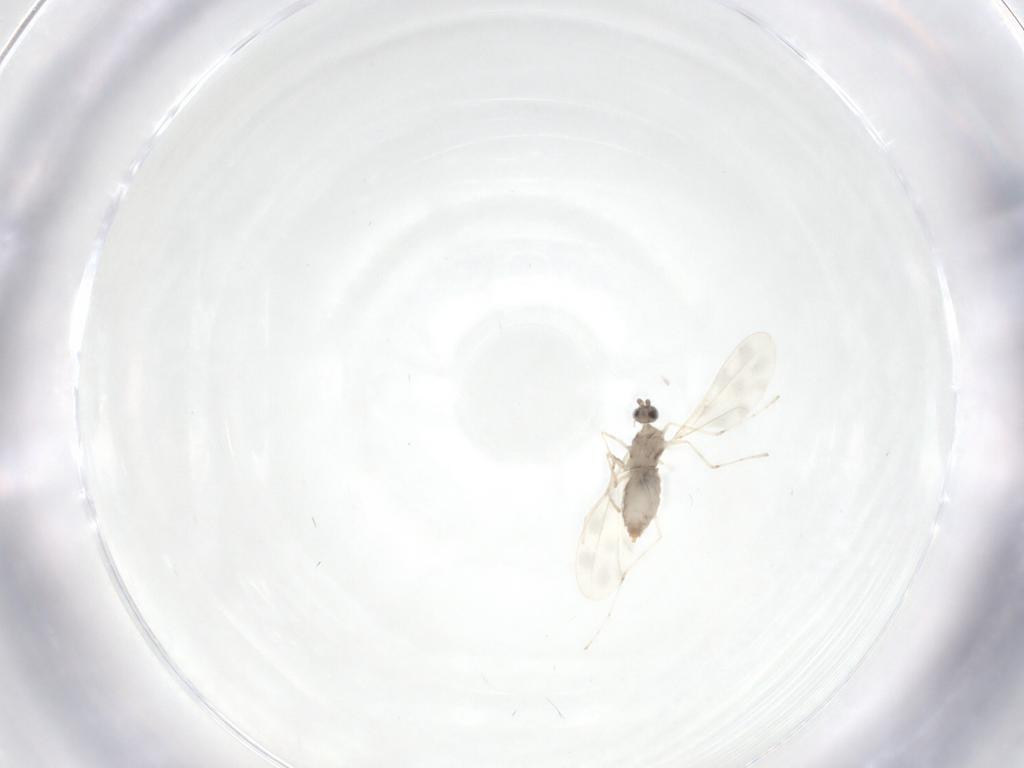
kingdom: Animalia
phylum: Arthropoda
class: Insecta
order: Diptera
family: Cecidomyiidae
